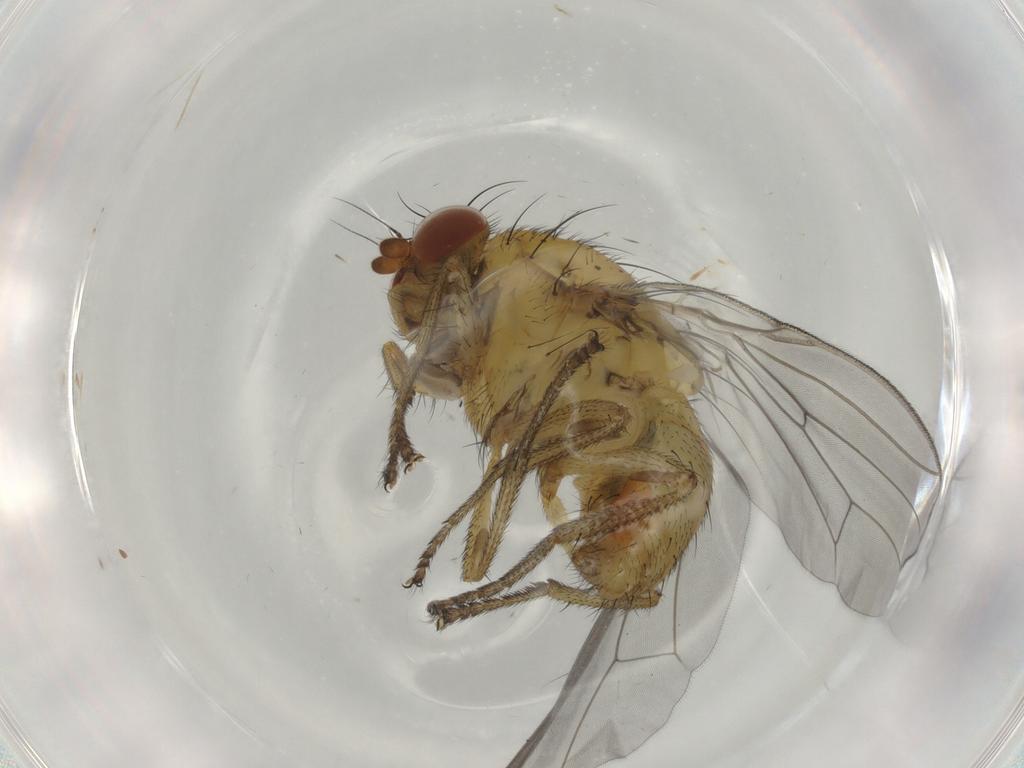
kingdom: Animalia
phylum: Arthropoda
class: Insecta
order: Diptera
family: Lauxaniidae
